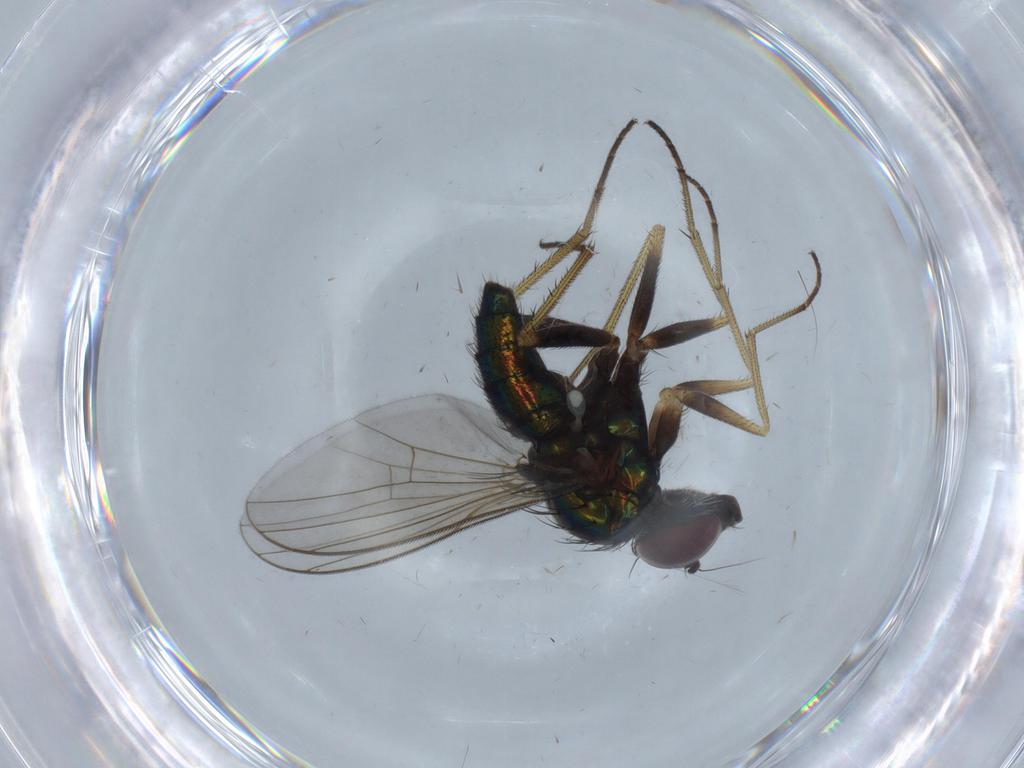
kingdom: Animalia
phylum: Arthropoda
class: Insecta
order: Diptera
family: Dolichopodidae
